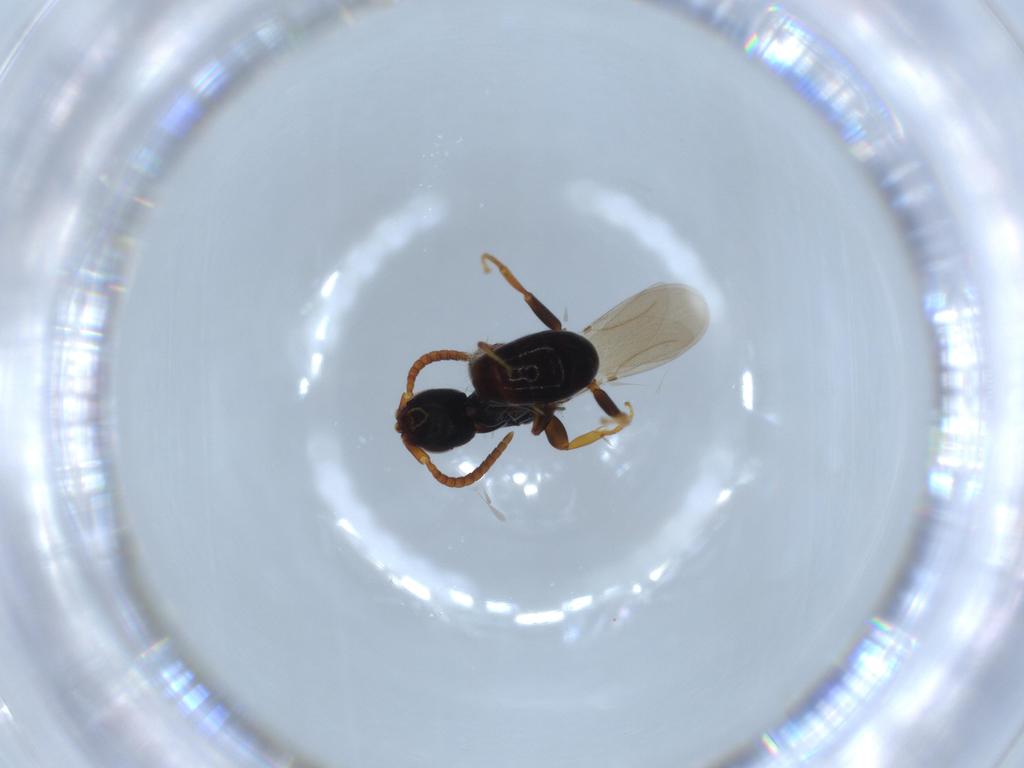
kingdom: Animalia
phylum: Arthropoda
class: Insecta
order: Hymenoptera
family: Bethylidae
